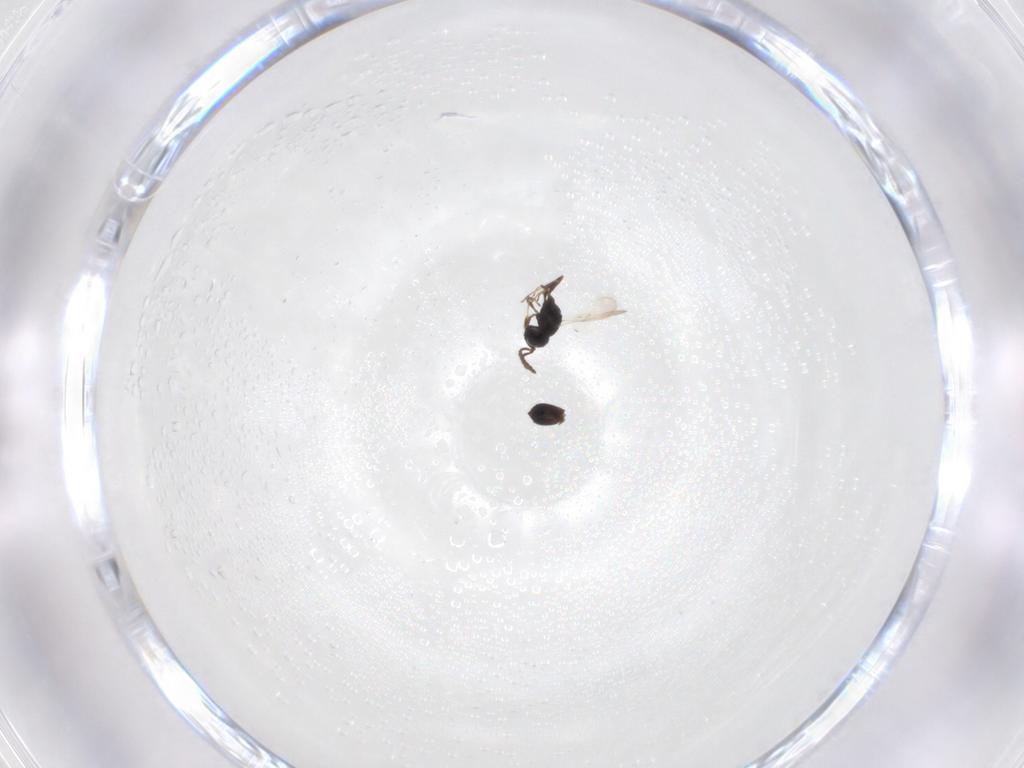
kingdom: Animalia
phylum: Arthropoda
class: Insecta
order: Hymenoptera
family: Scelionidae
